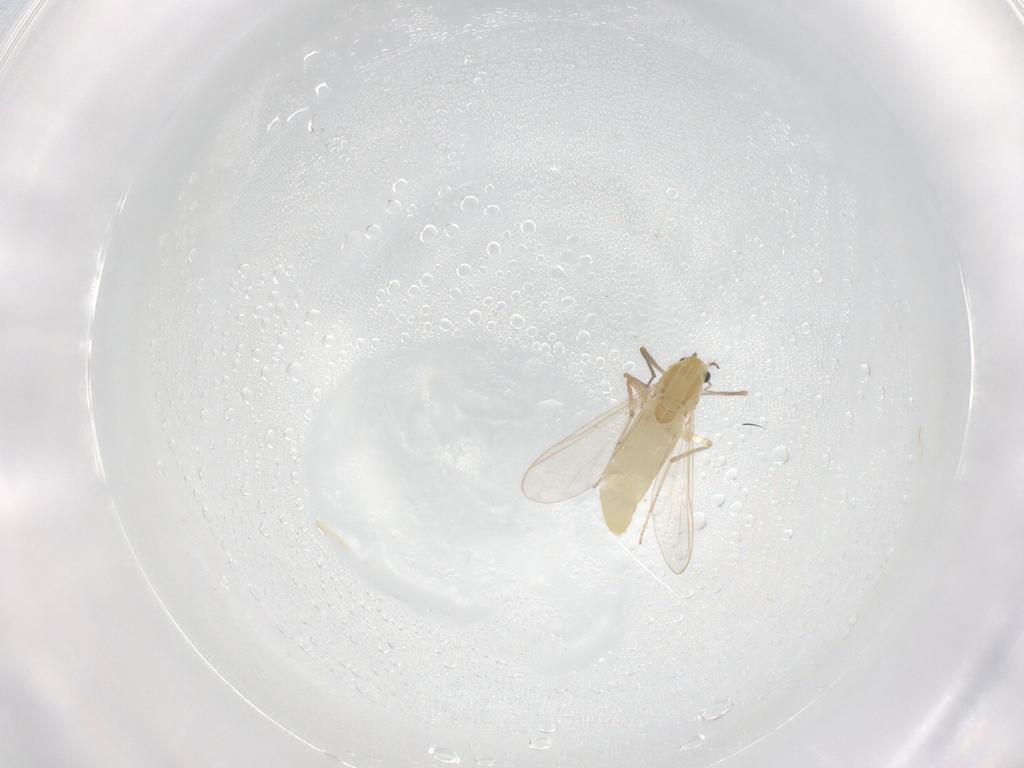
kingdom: Animalia
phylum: Arthropoda
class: Insecta
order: Diptera
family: Chironomidae
